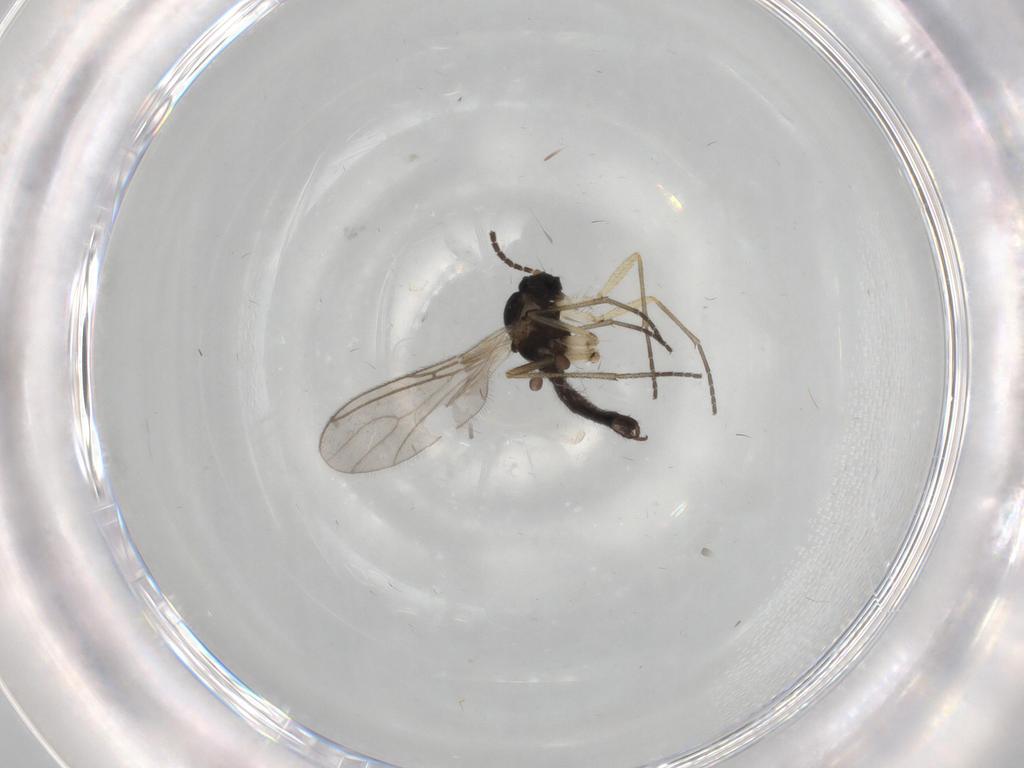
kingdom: Animalia
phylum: Arthropoda
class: Insecta
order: Diptera
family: Sciaridae
